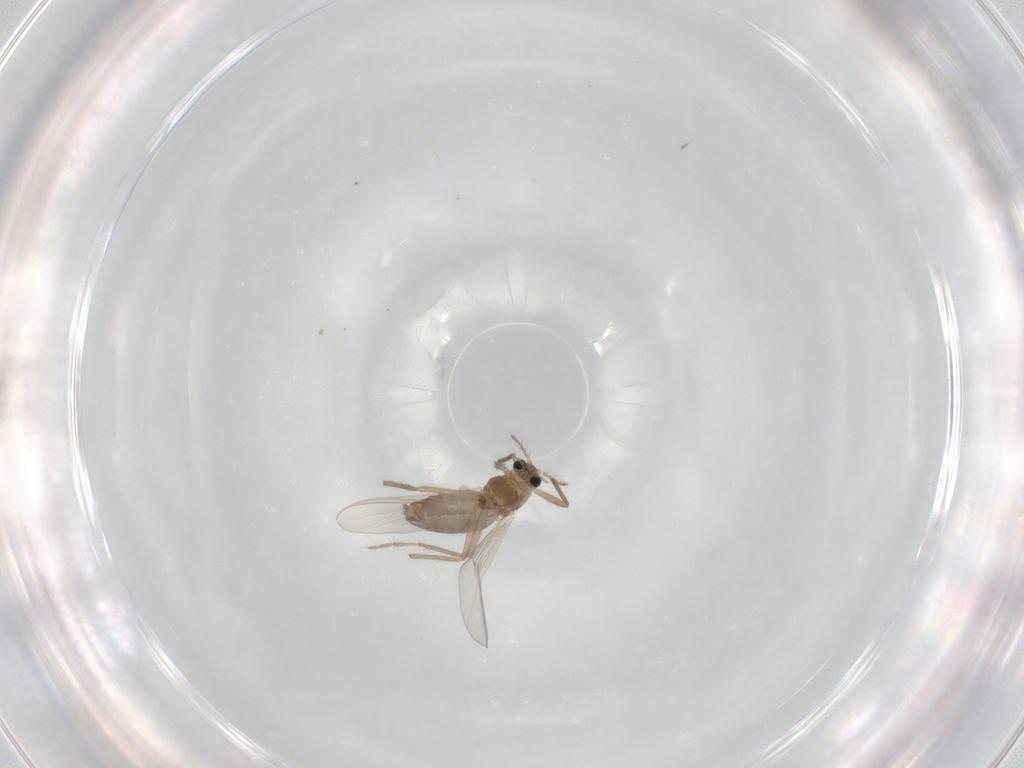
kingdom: Animalia
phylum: Arthropoda
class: Insecta
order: Diptera
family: Chironomidae
